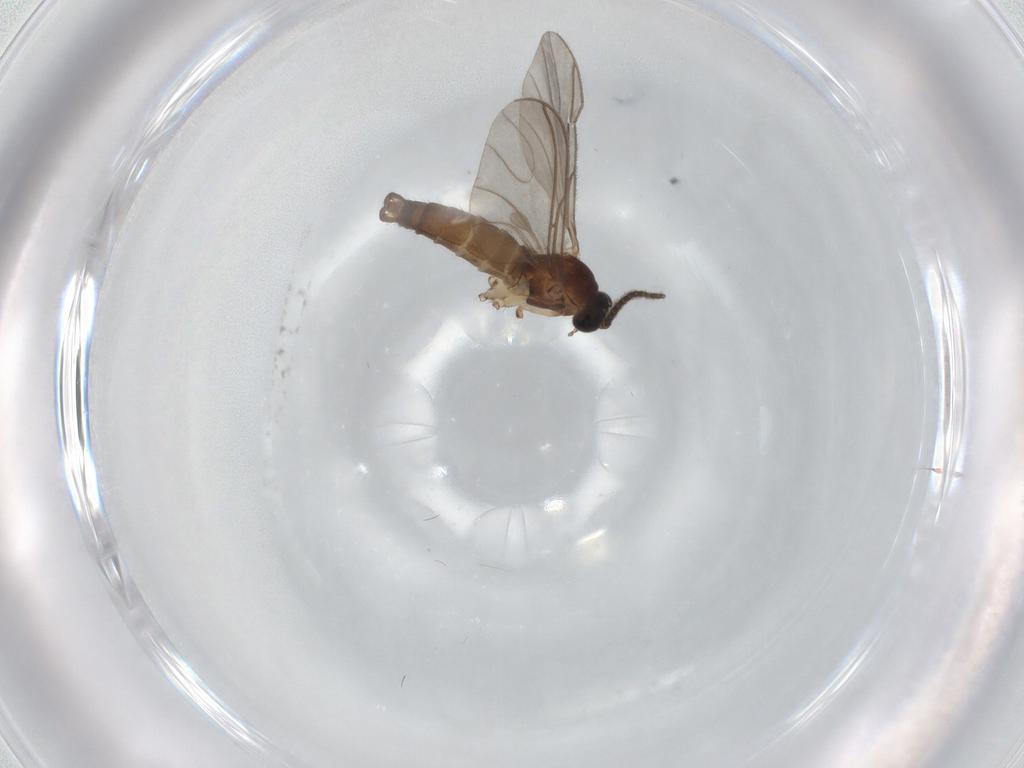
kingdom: Animalia
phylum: Arthropoda
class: Insecta
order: Diptera
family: Sciaridae
